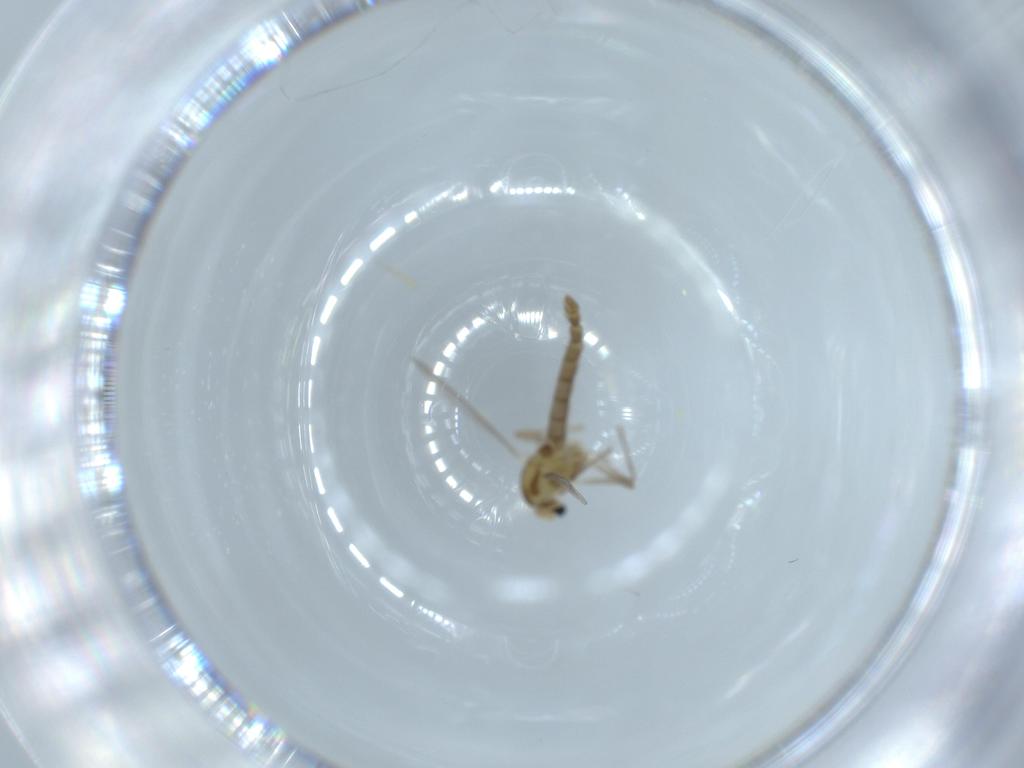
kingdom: Animalia
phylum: Arthropoda
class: Insecta
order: Diptera
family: Chironomidae
